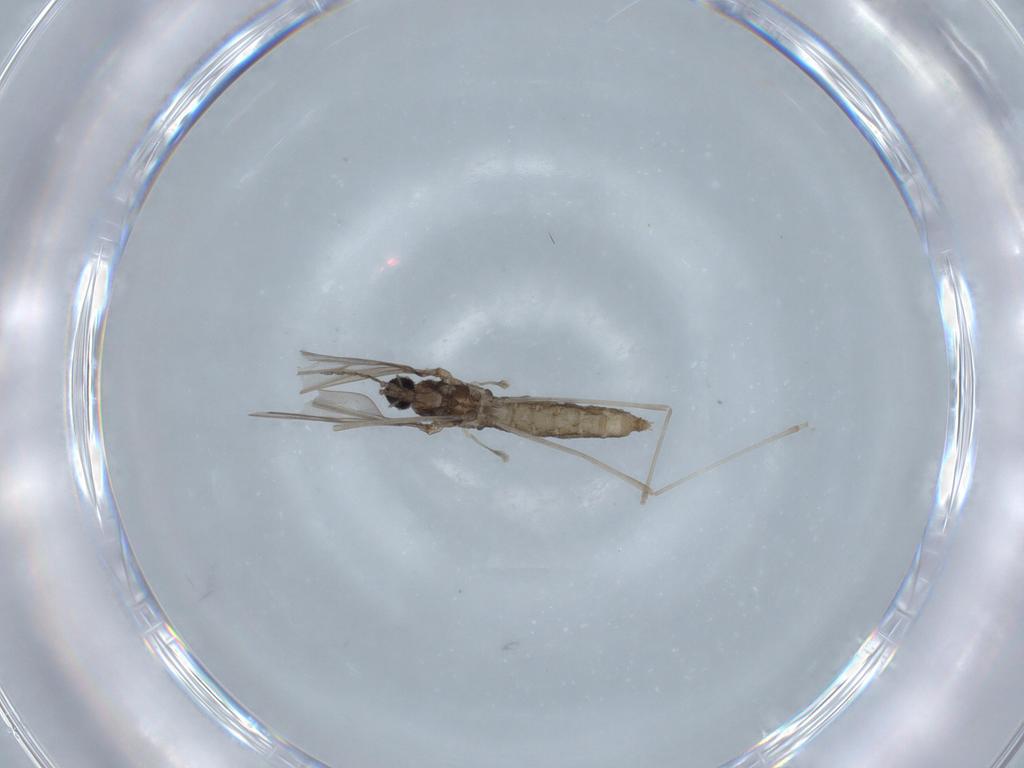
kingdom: Animalia
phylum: Arthropoda
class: Insecta
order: Diptera
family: Cecidomyiidae
